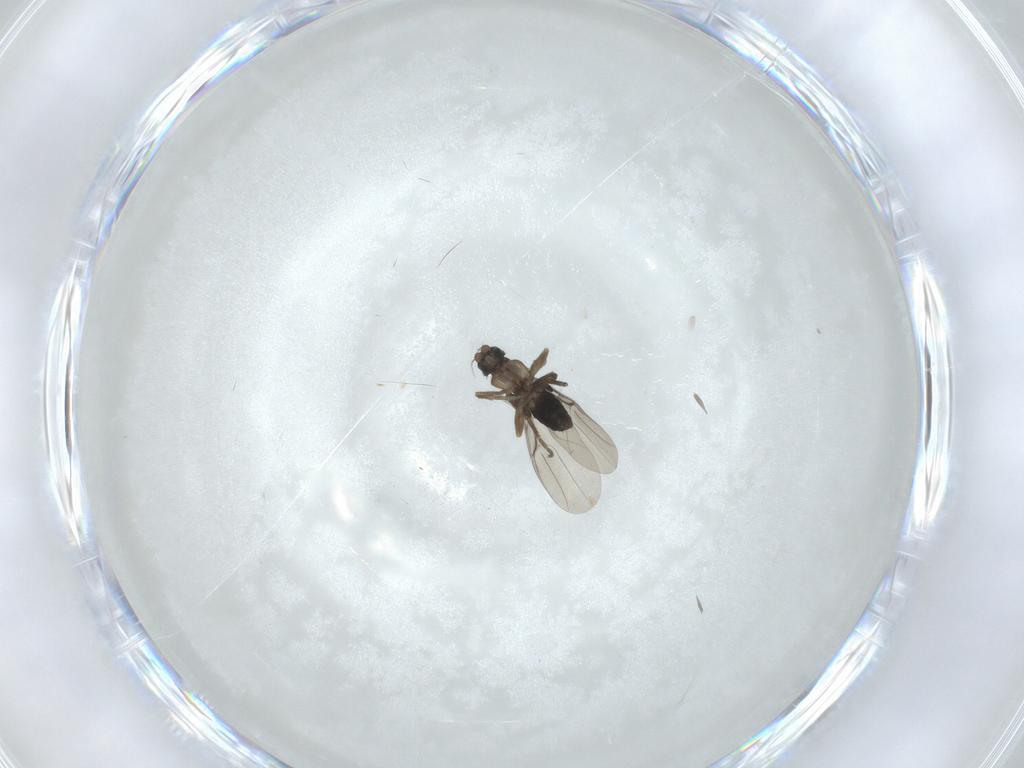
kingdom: Animalia
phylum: Arthropoda
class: Insecta
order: Diptera
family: Phoridae
